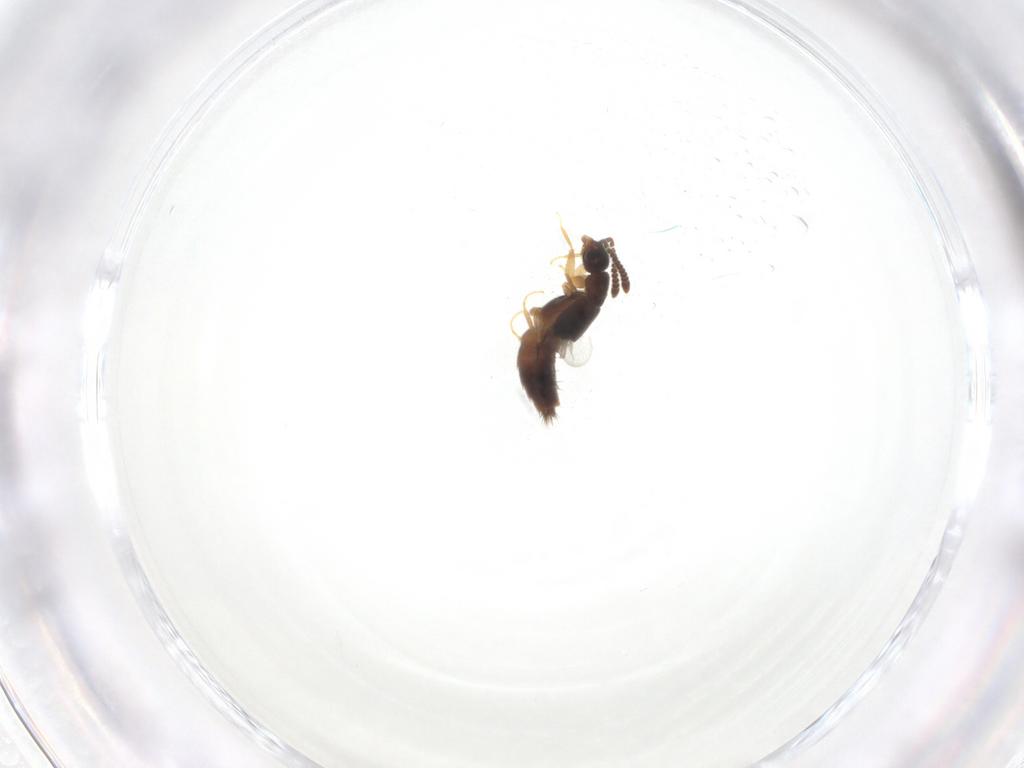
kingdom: Animalia
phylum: Arthropoda
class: Insecta
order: Coleoptera
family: Staphylinidae
